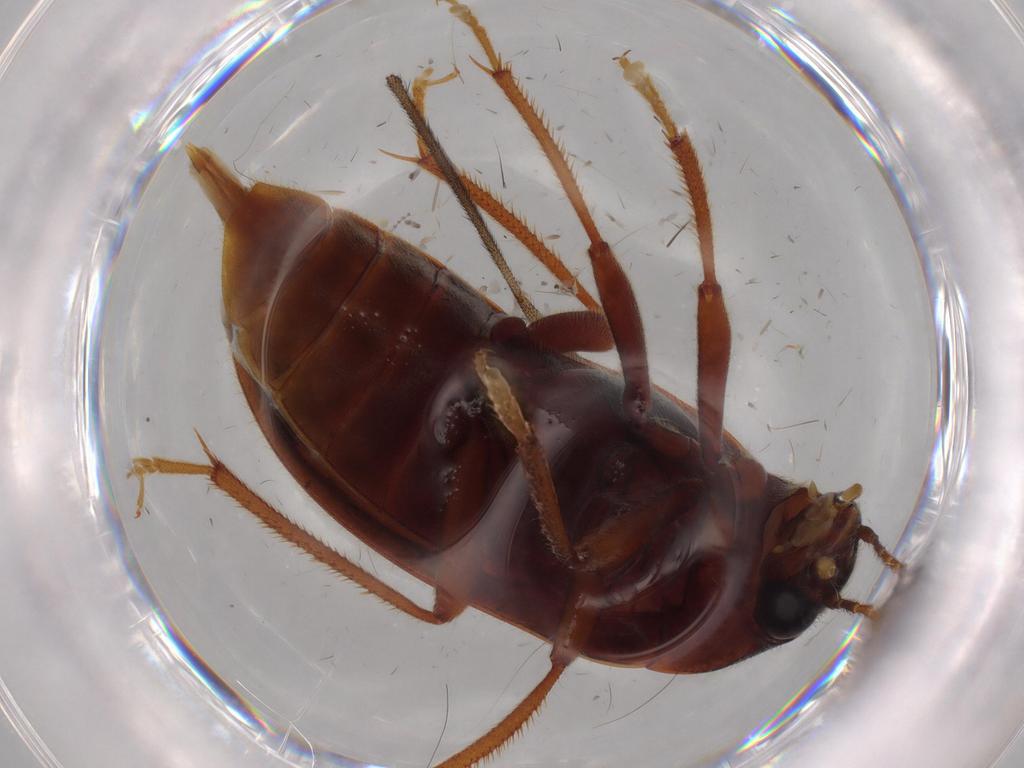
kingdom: Animalia
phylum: Arthropoda
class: Insecta
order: Coleoptera
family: Ptilodactylidae
